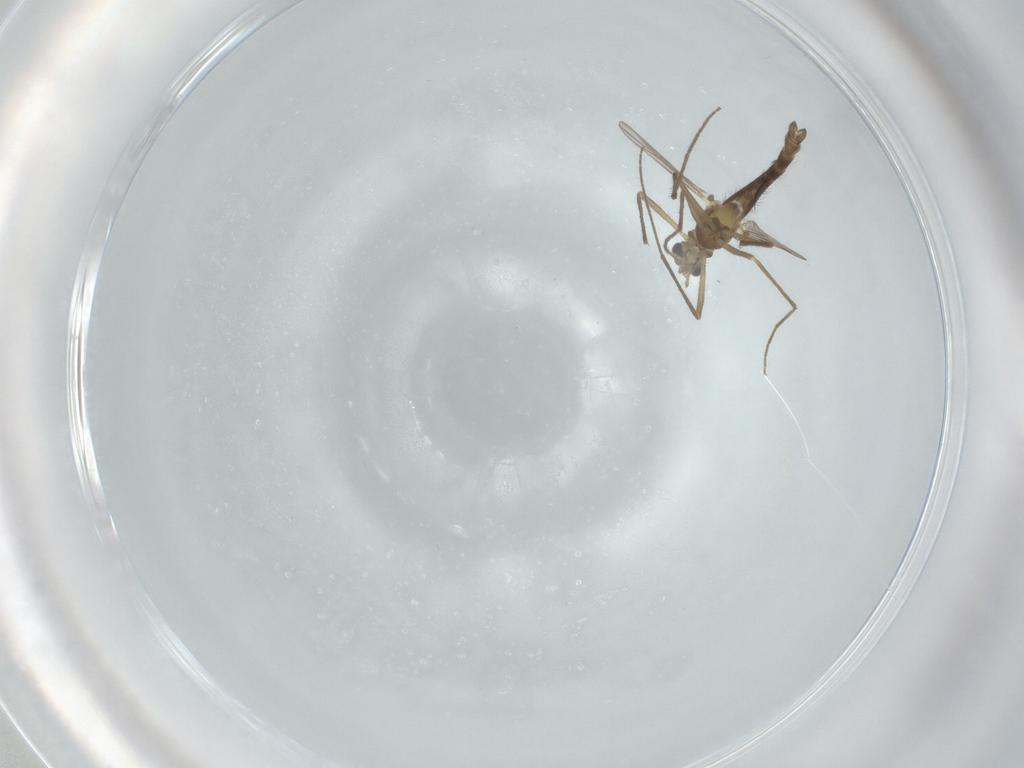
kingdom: Animalia
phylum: Arthropoda
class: Insecta
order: Diptera
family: Chironomidae
